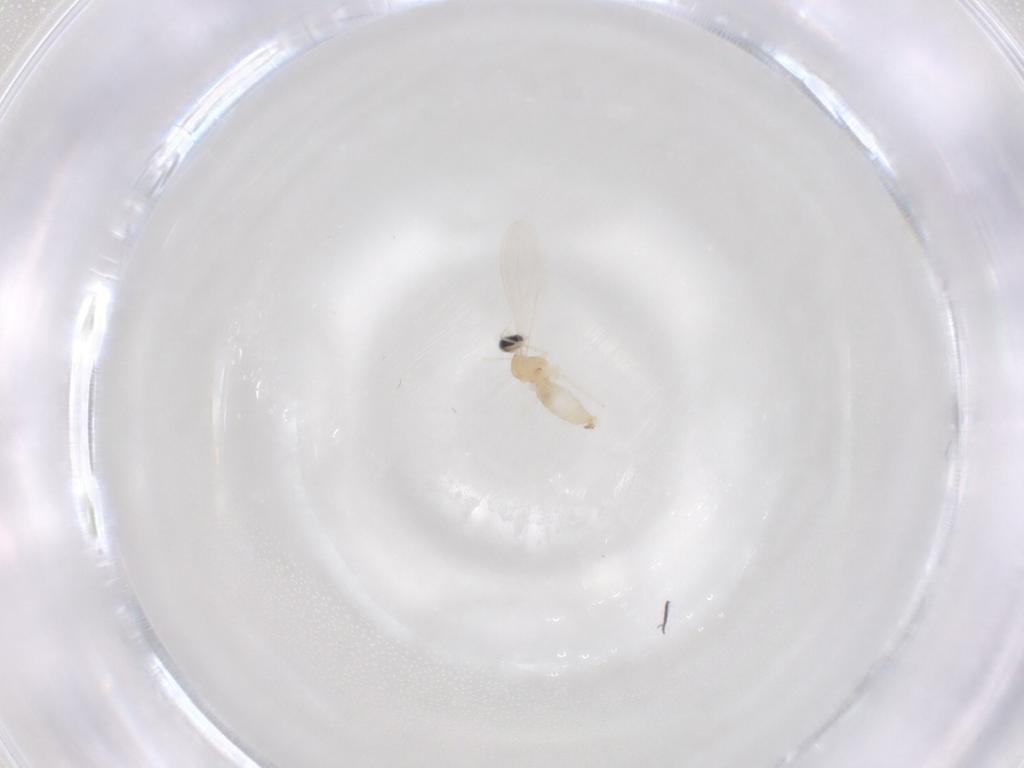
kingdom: Animalia
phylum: Arthropoda
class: Insecta
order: Diptera
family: Cecidomyiidae
